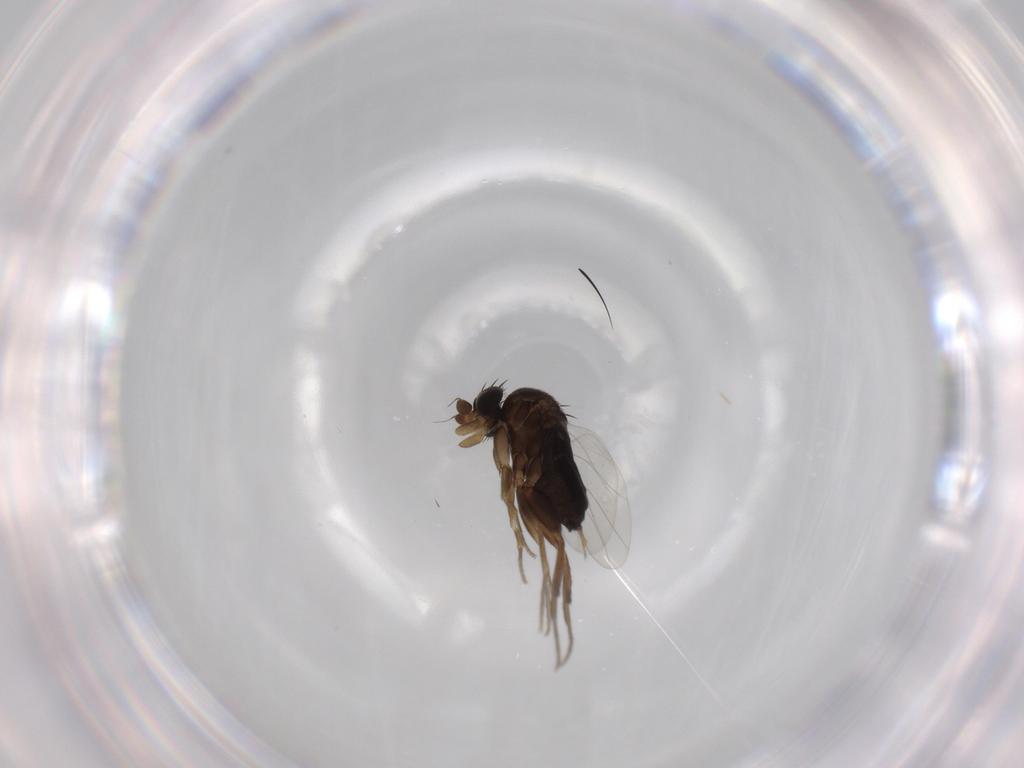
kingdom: Animalia
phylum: Arthropoda
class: Insecta
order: Diptera
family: Phoridae
